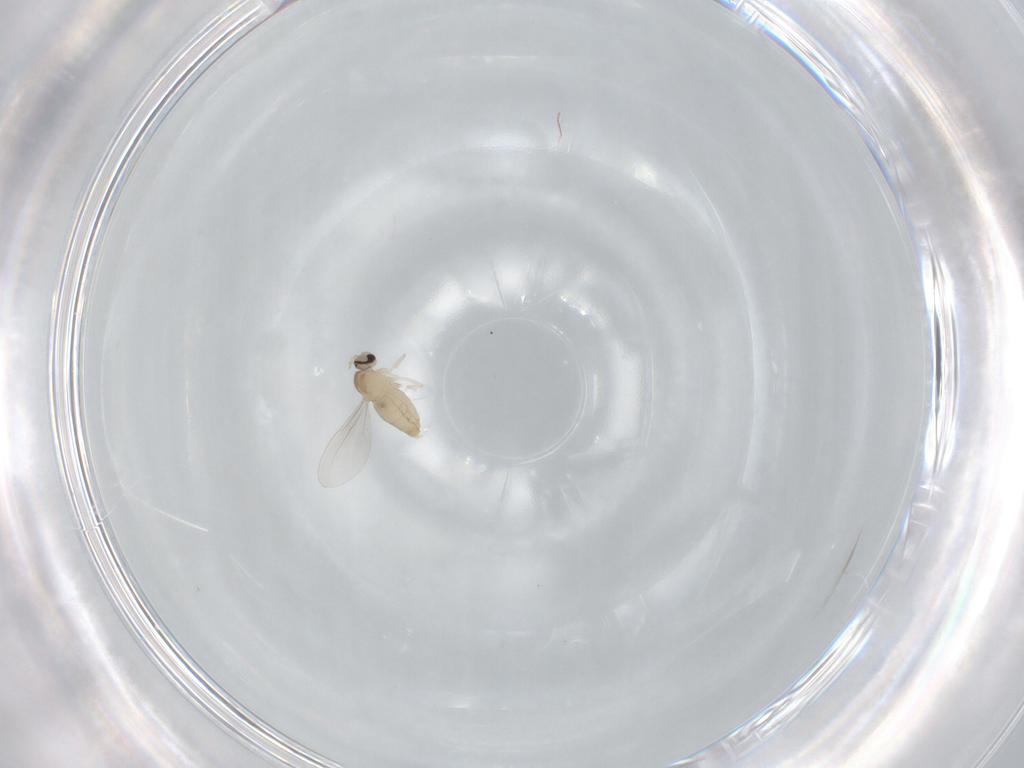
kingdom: Animalia
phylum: Arthropoda
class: Insecta
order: Diptera
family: Cecidomyiidae
